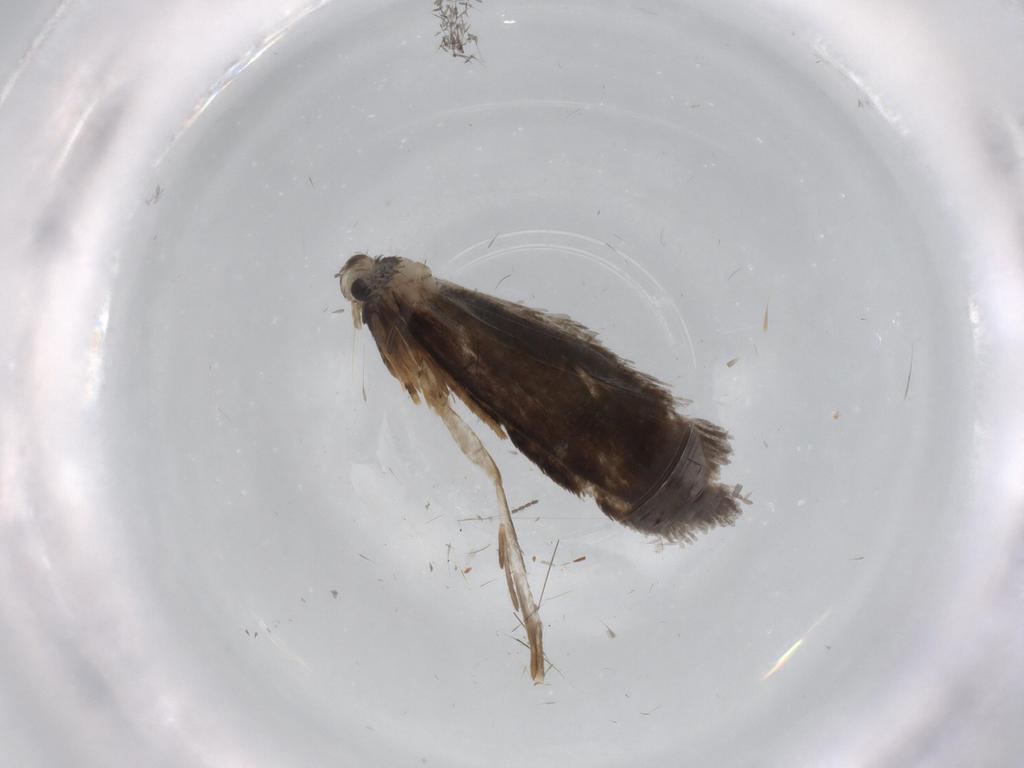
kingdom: Animalia
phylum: Arthropoda
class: Insecta
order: Lepidoptera
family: Psychidae
